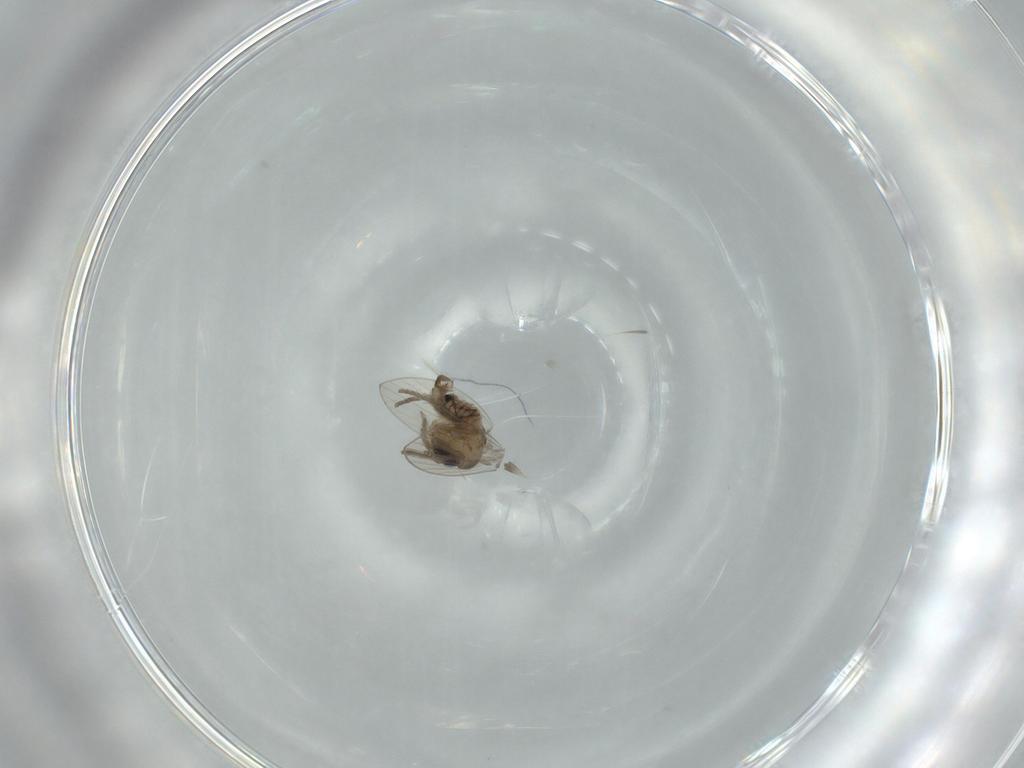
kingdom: Animalia
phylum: Arthropoda
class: Insecta
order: Diptera
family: Psychodidae
